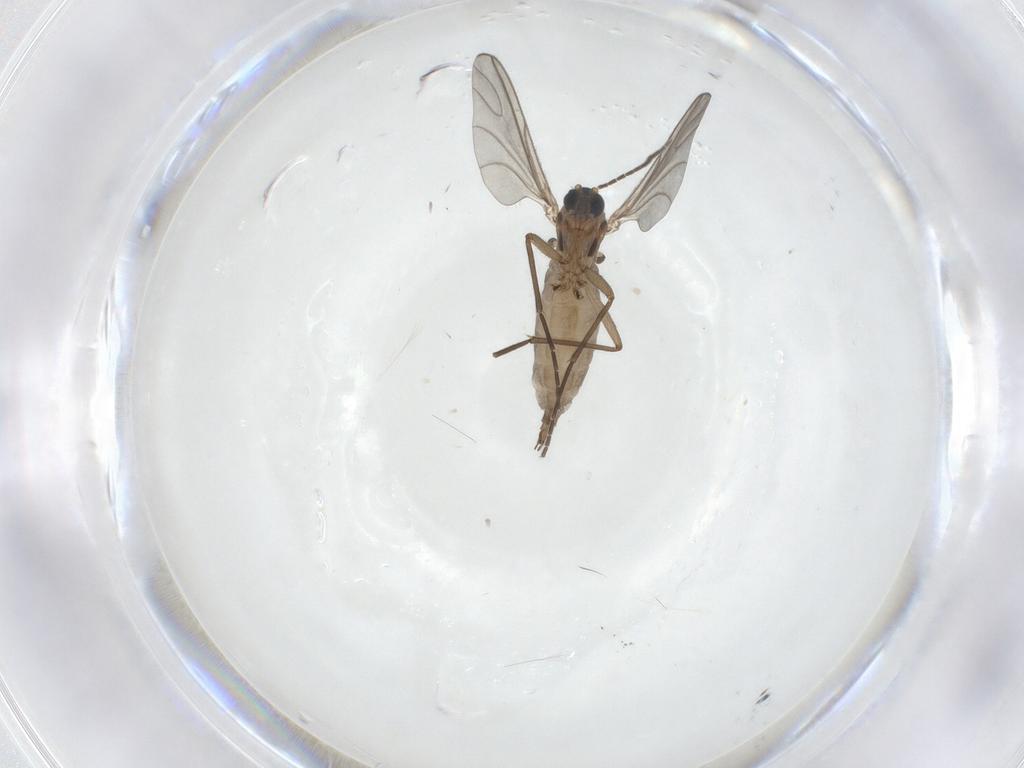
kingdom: Animalia
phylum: Arthropoda
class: Insecta
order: Diptera
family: Sciaridae
